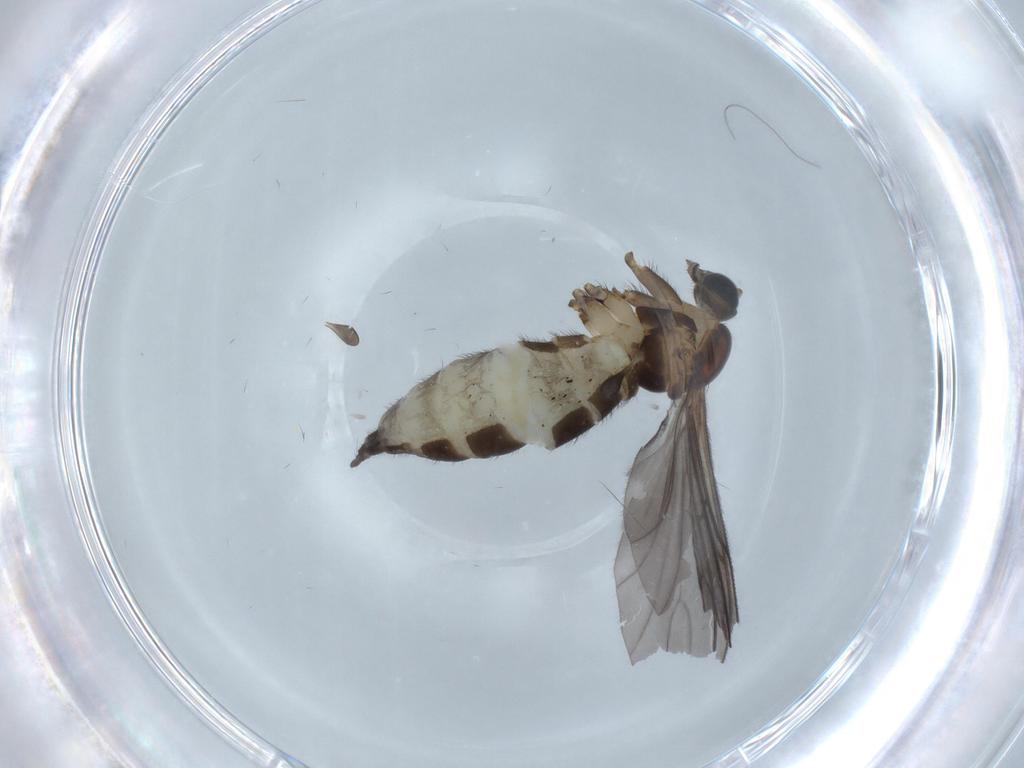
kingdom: Animalia
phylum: Arthropoda
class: Insecta
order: Diptera
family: Sciaridae
